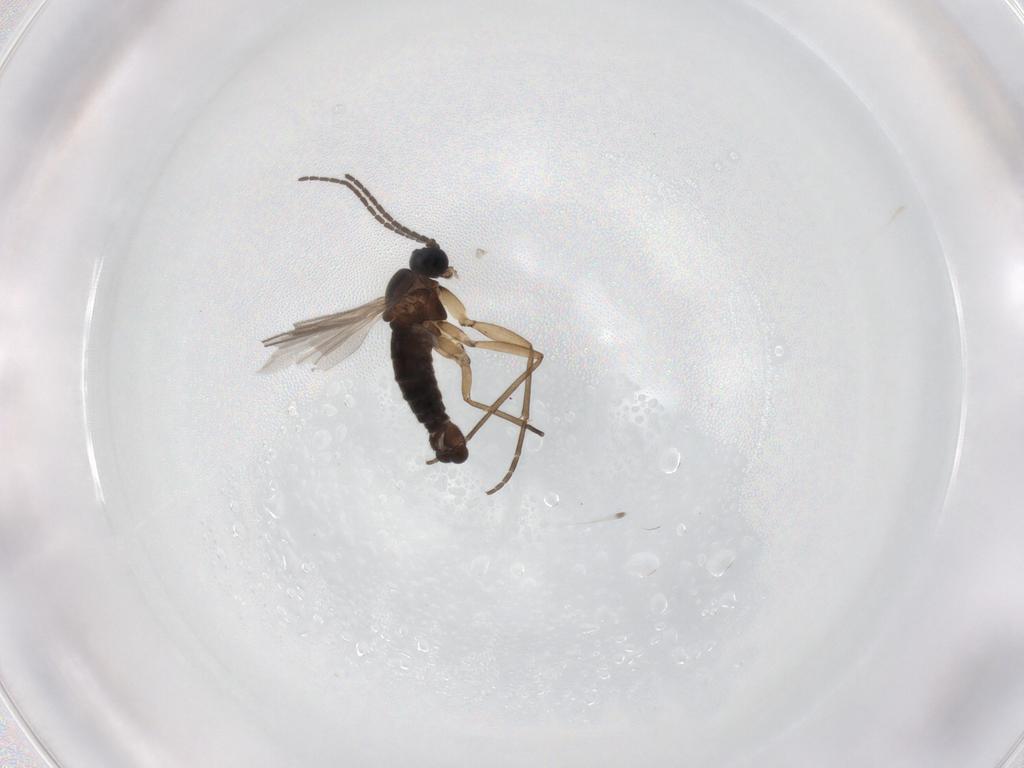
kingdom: Animalia
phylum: Arthropoda
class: Insecta
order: Diptera
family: Sciaridae
